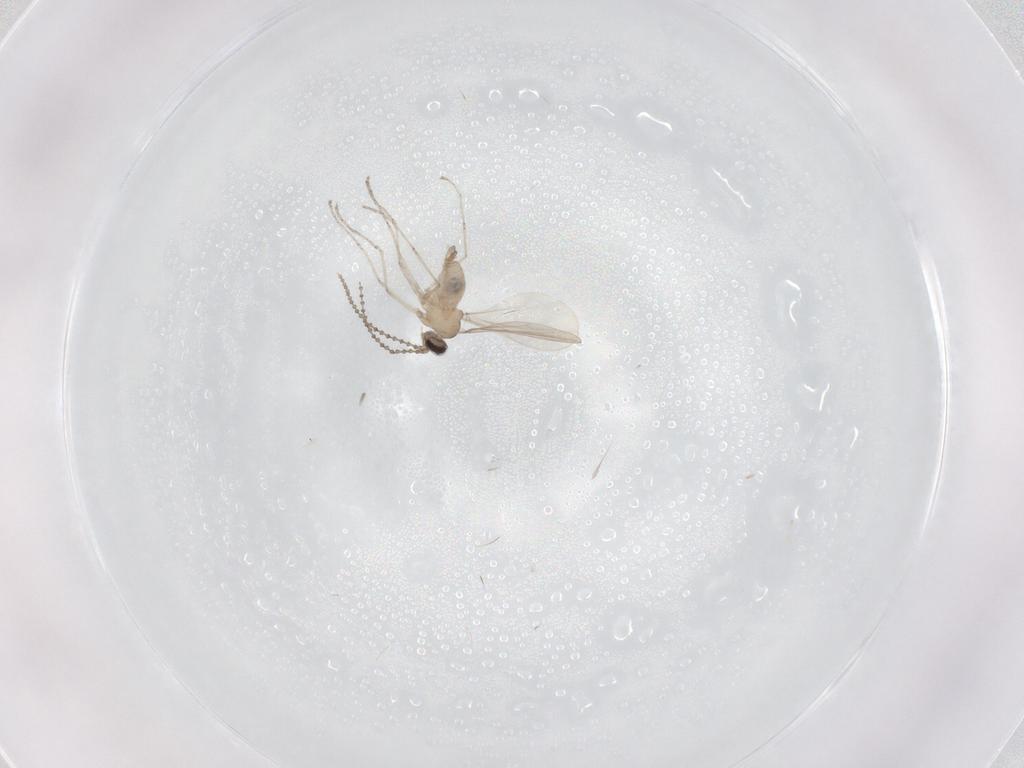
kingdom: Animalia
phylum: Arthropoda
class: Insecta
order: Diptera
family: Cecidomyiidae
